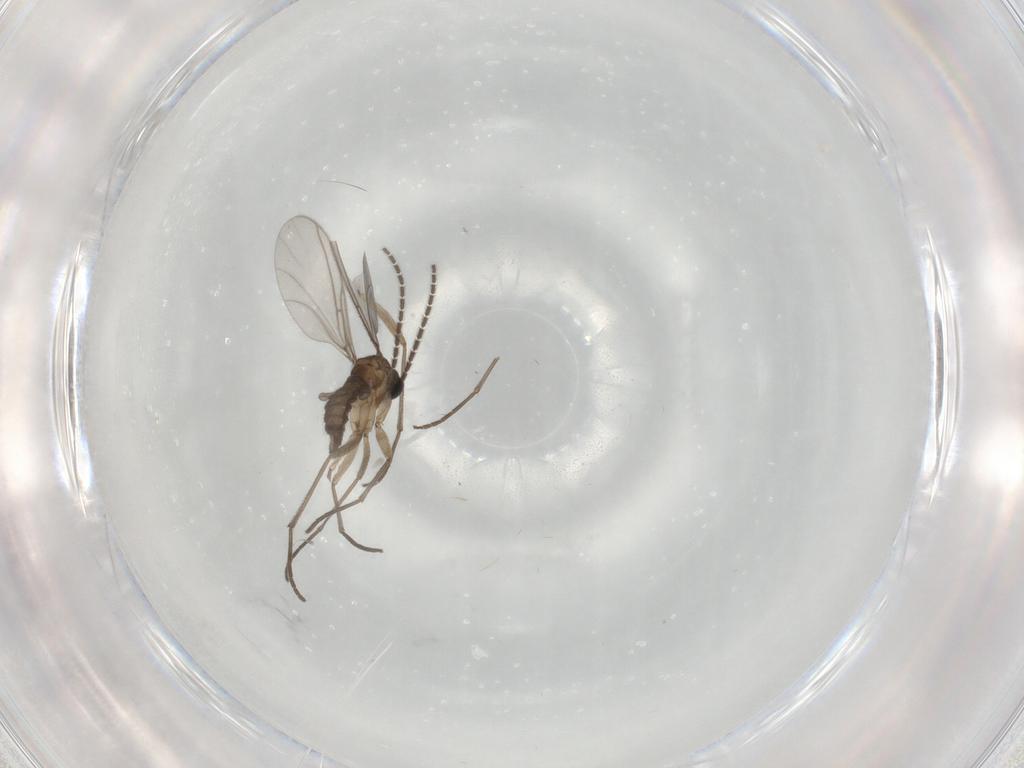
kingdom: Animalia
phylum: Arthropoda
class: Insecta
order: Diptera
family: Sciaridae
